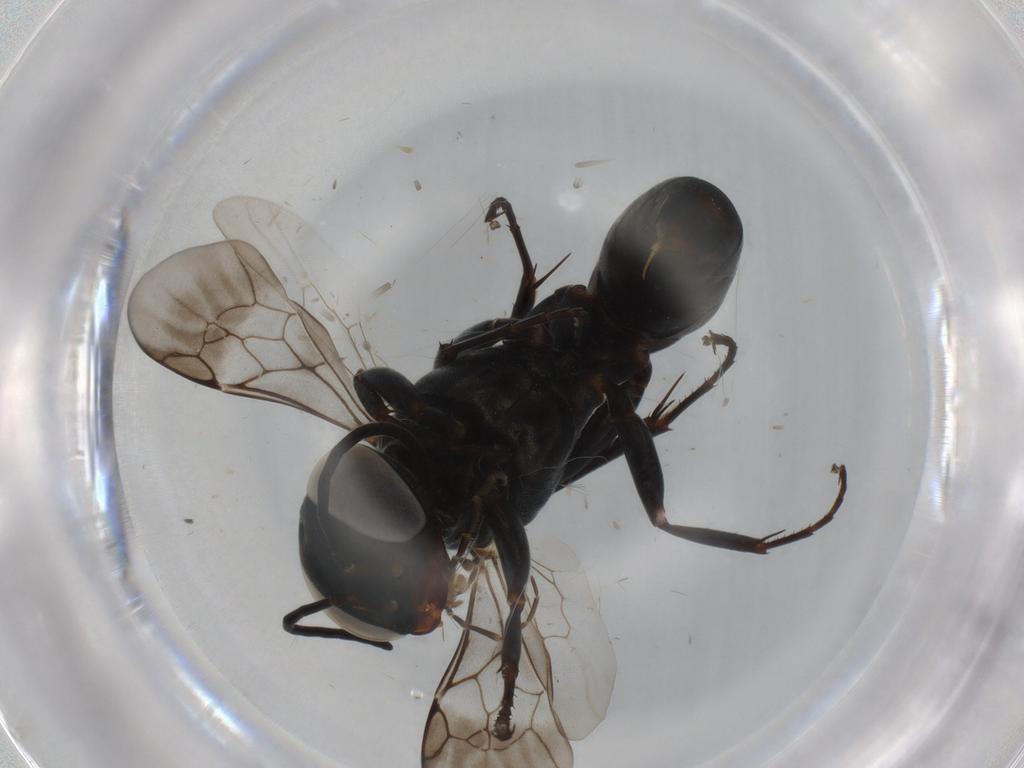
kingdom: Animalia
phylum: Arthropoda
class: Insecta
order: Hymenoptera
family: Crabronidae
